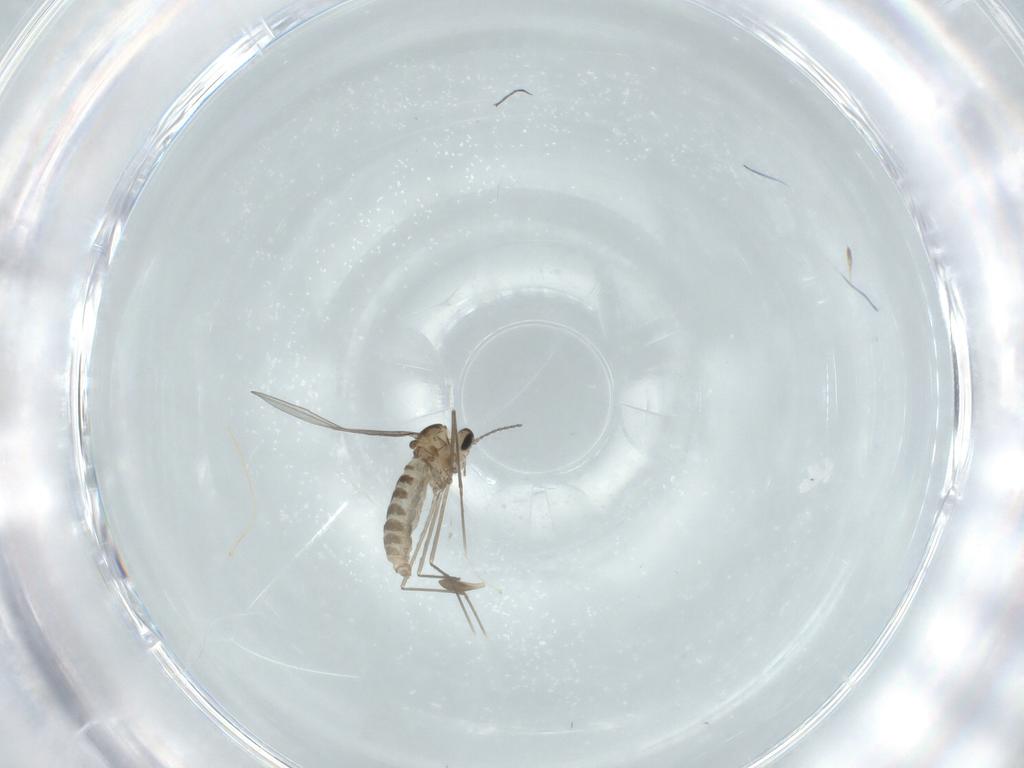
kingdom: Animalia
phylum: Arthropoda
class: Insecta
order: Diptera
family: Cecidomyiidae
